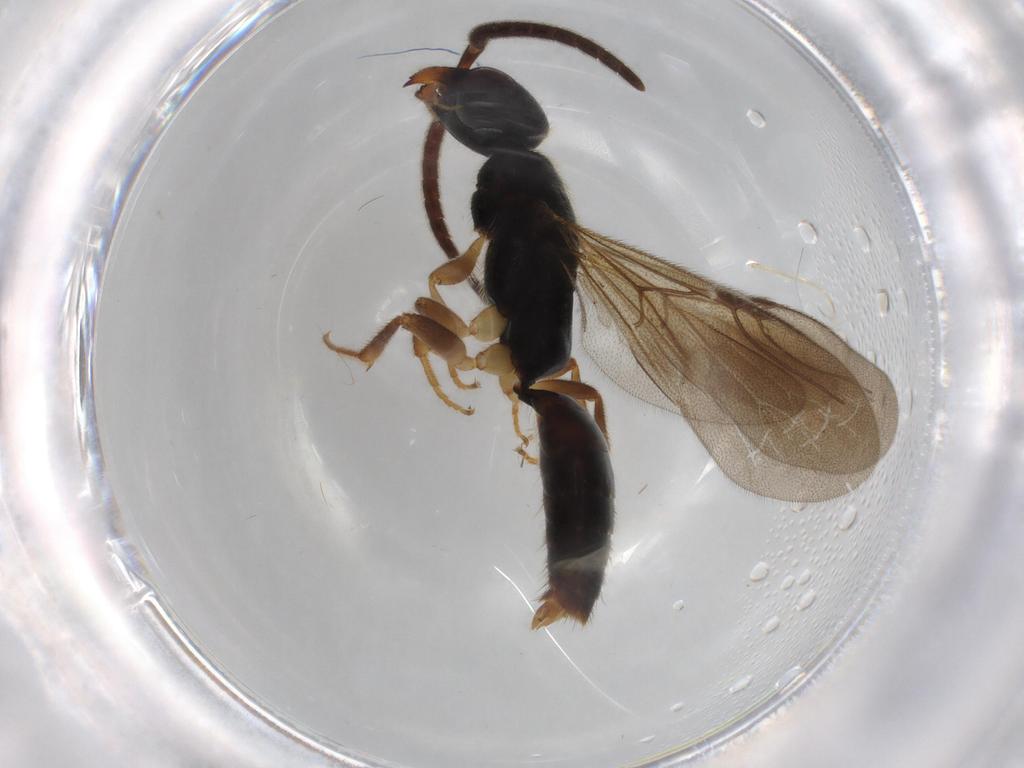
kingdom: Animalia
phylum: Arthropoda
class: Insecta
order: Hymenoptera
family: Bethylidae
